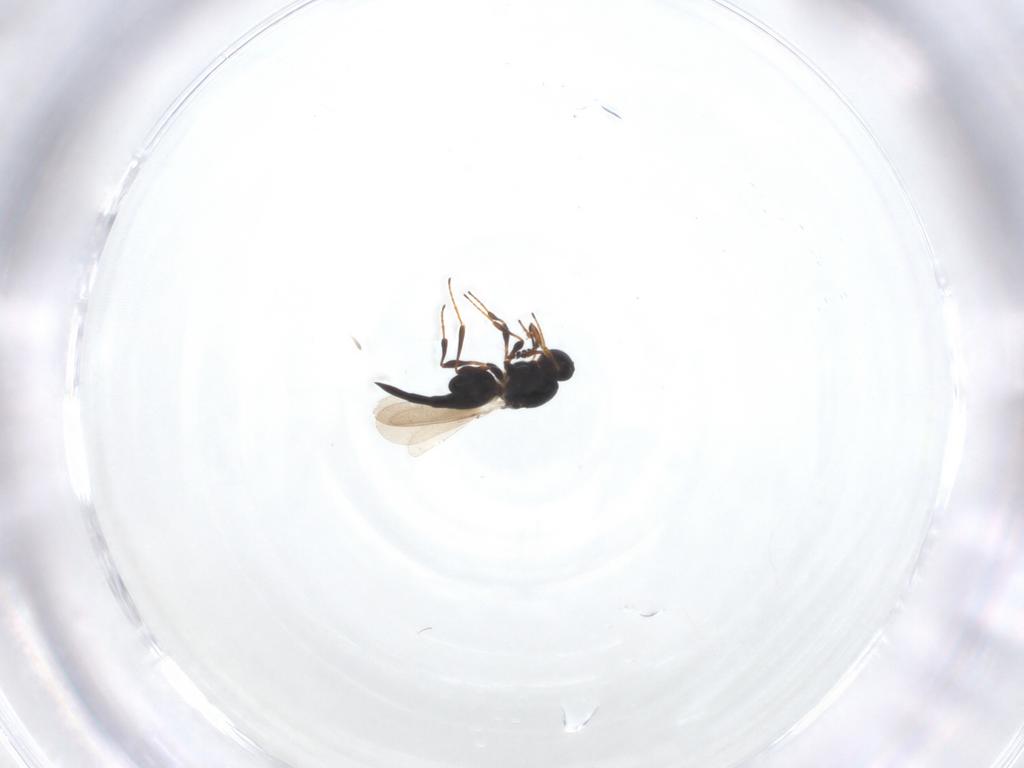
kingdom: Animalia
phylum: Arthropoda
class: Insecta
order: Hymenoptera
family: Platygastridae
